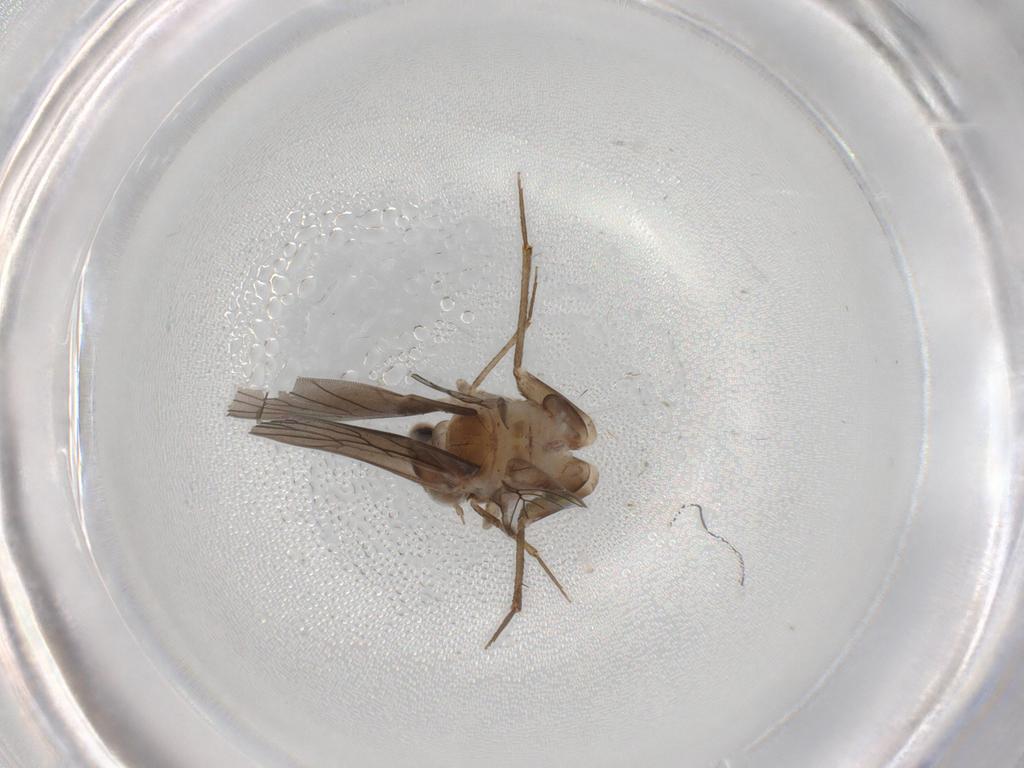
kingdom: Animalia
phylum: Arthropoda
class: Insecta
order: Psocodea
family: Lepidopsocidae
